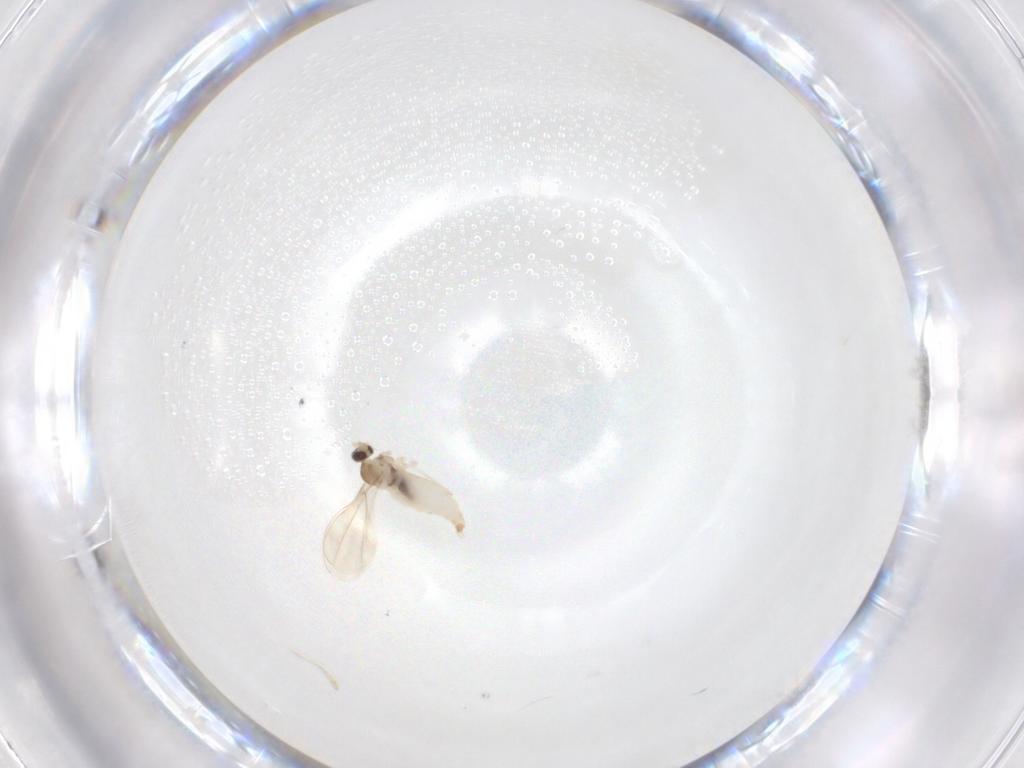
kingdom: Animalia
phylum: Arthropoda
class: Insecta
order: Diptera
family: Cecidomyiidae
